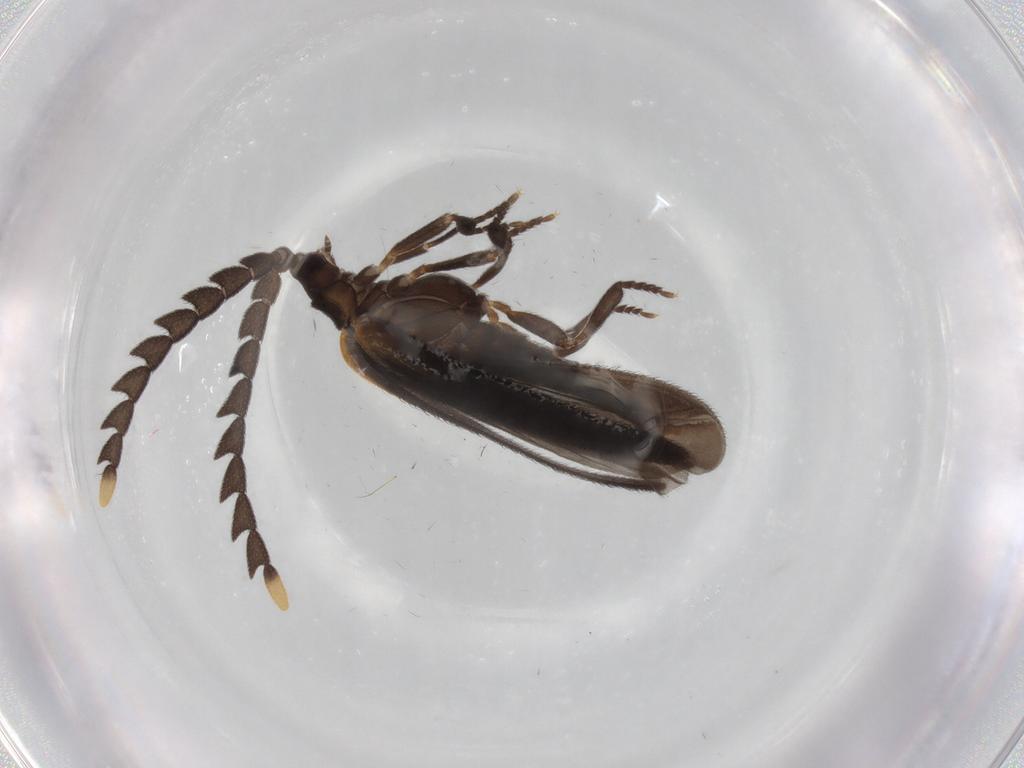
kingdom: Animalia
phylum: Arthropoda
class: Insecta
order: Coleoptera
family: Lycidae
